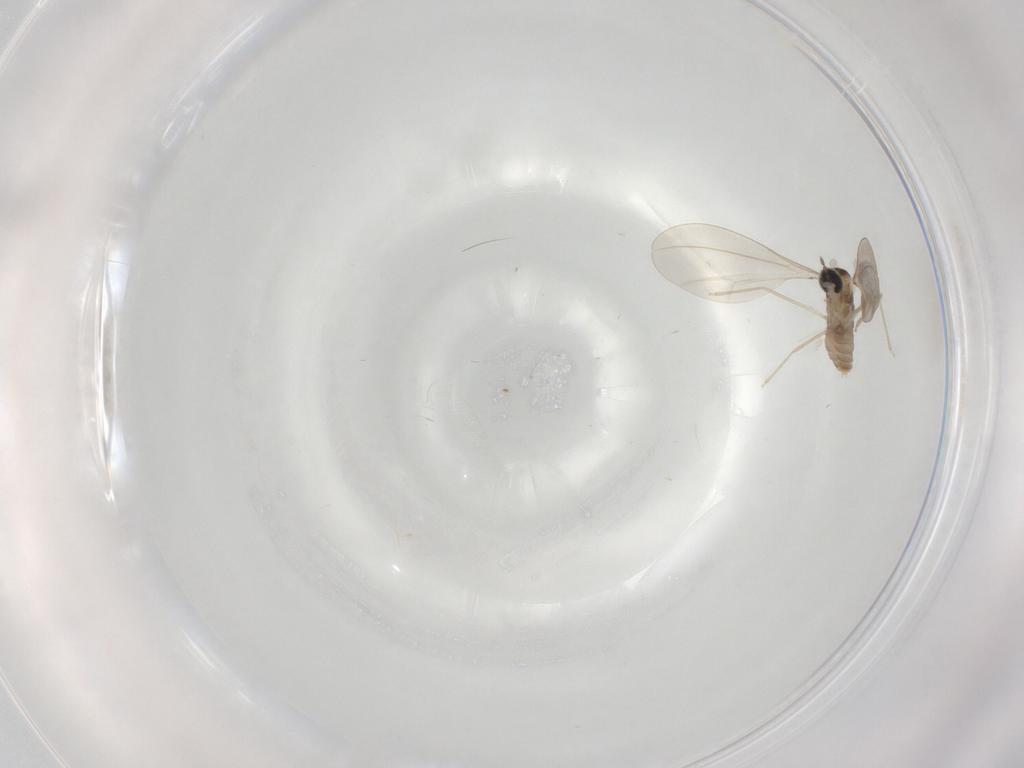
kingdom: Animalia
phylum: Arthropoda
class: Insecta
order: Diptera
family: Cecidomyiidae
